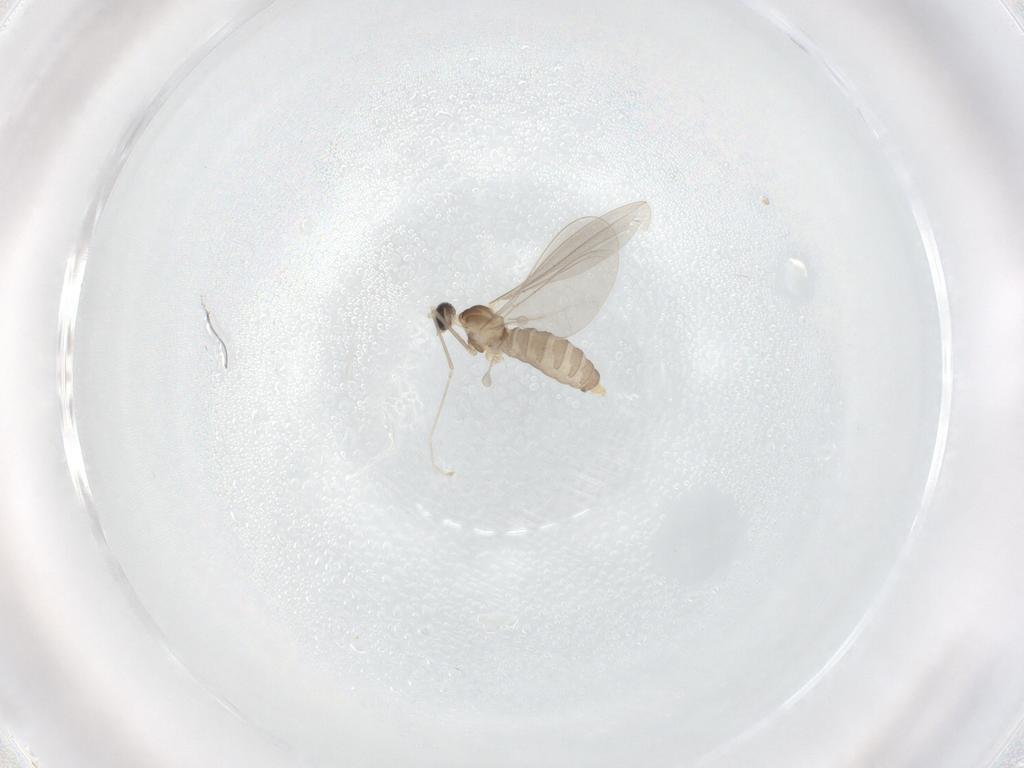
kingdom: Animalia
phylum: Arthropoda
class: Insecta
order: Diptera
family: Cecidomyiidae
